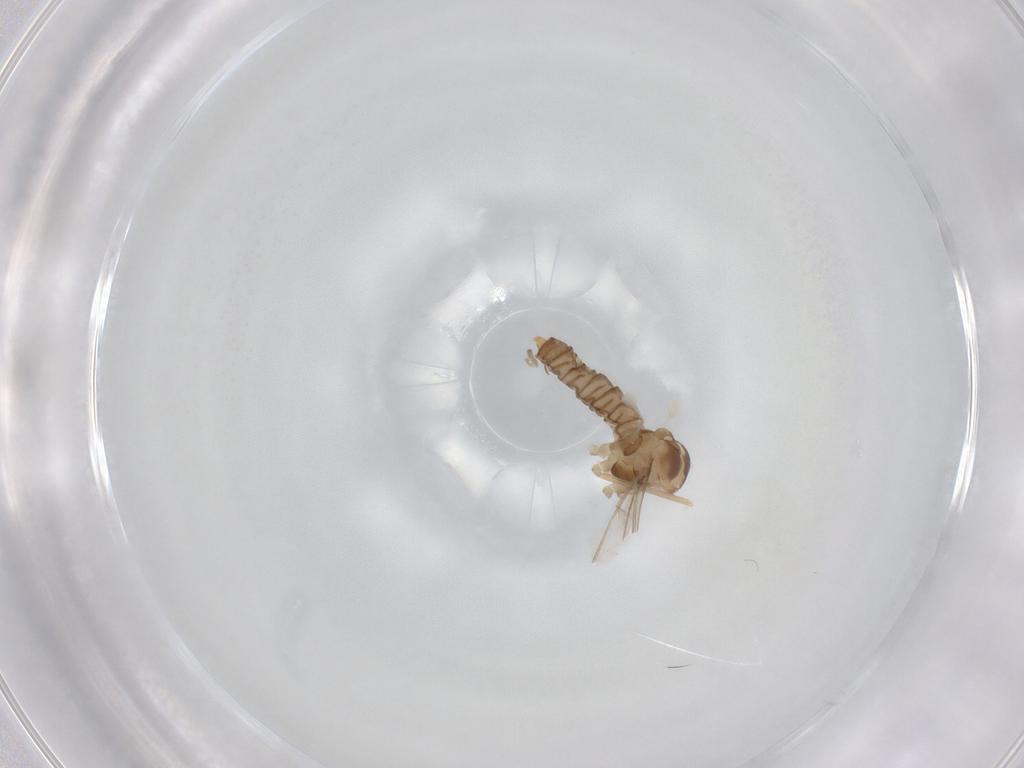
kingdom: Animalia
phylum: Arthropoda
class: Insecta
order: Diptera
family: Cecidomyiidae
